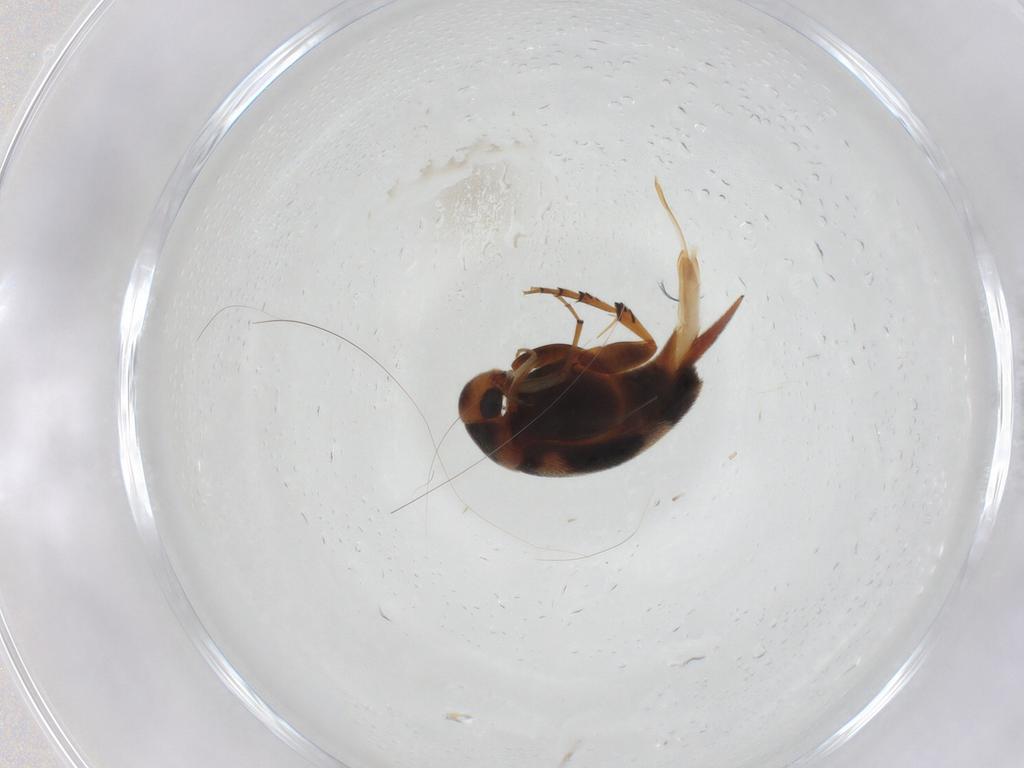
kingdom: Animalia
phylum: Arthropoda
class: Insecta
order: Coleoptera
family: Mordellidae
